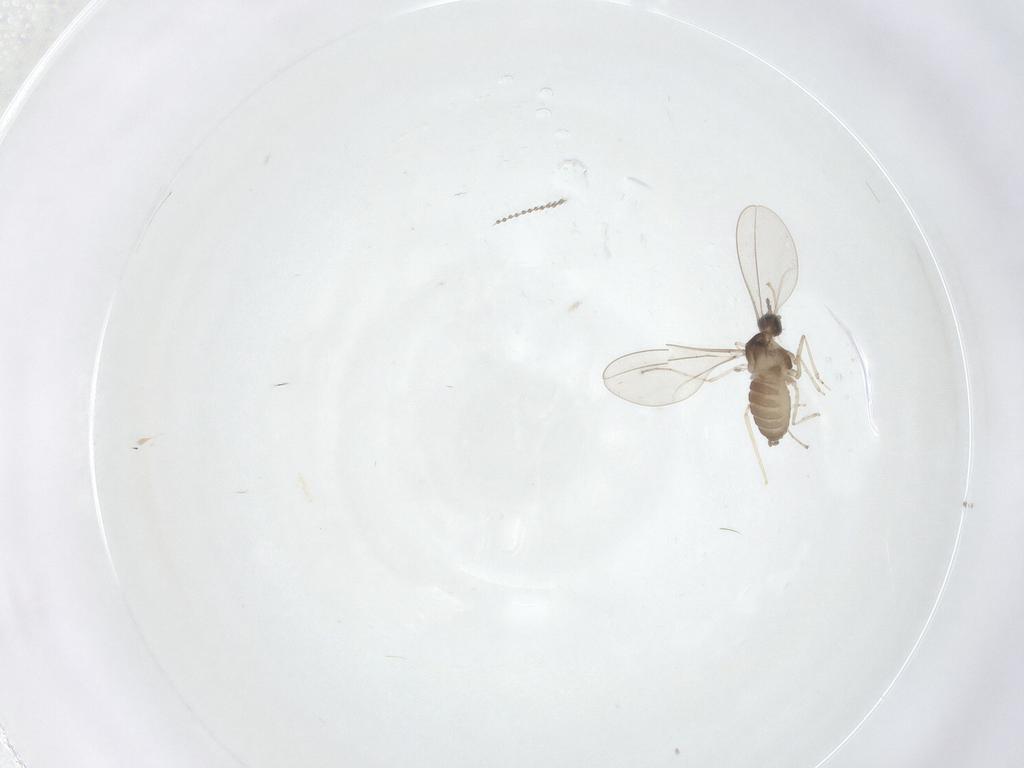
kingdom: Animalia
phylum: Arthropoda
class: Insecta
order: Diptera
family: Cecidomyiidae
